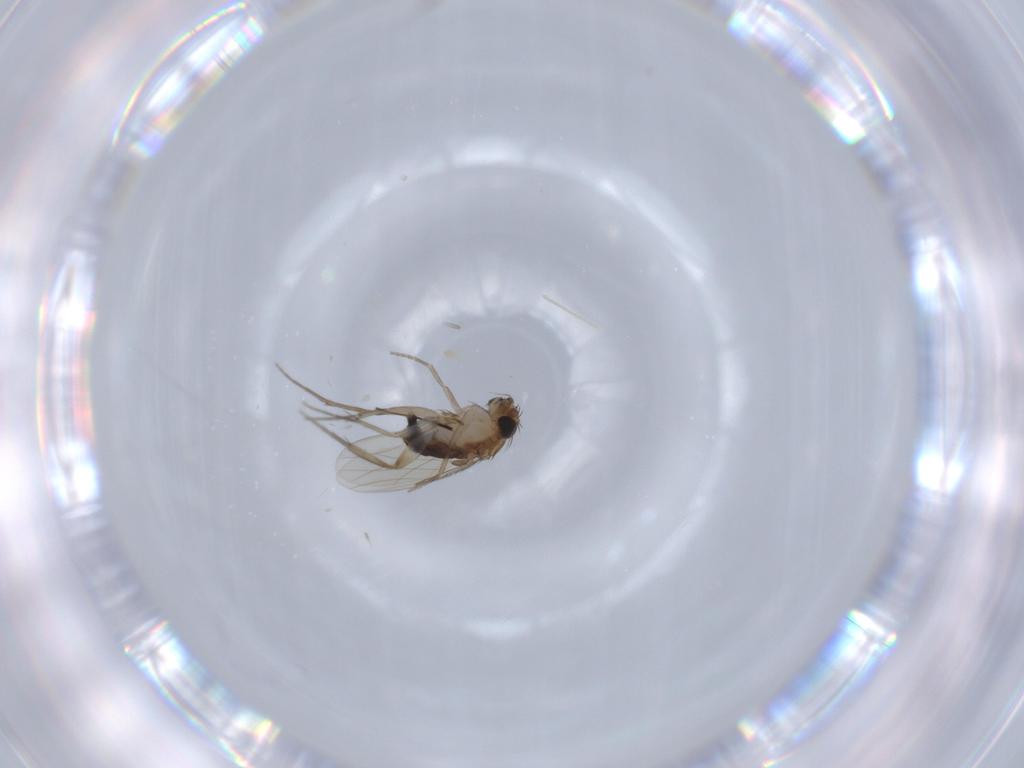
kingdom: Animalia
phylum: Arthropoda
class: Insecta
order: Diptera
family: Phoridae
